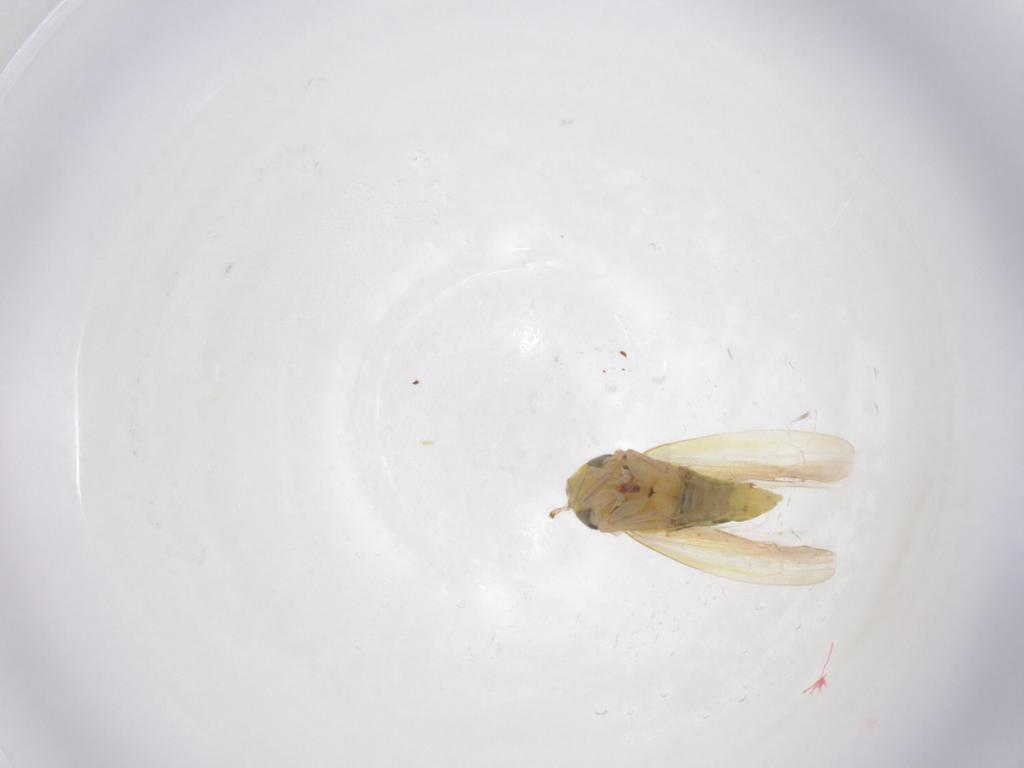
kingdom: Animalia
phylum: Arthropoda
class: Insecta
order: Hemiptera
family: Cicadellidae
